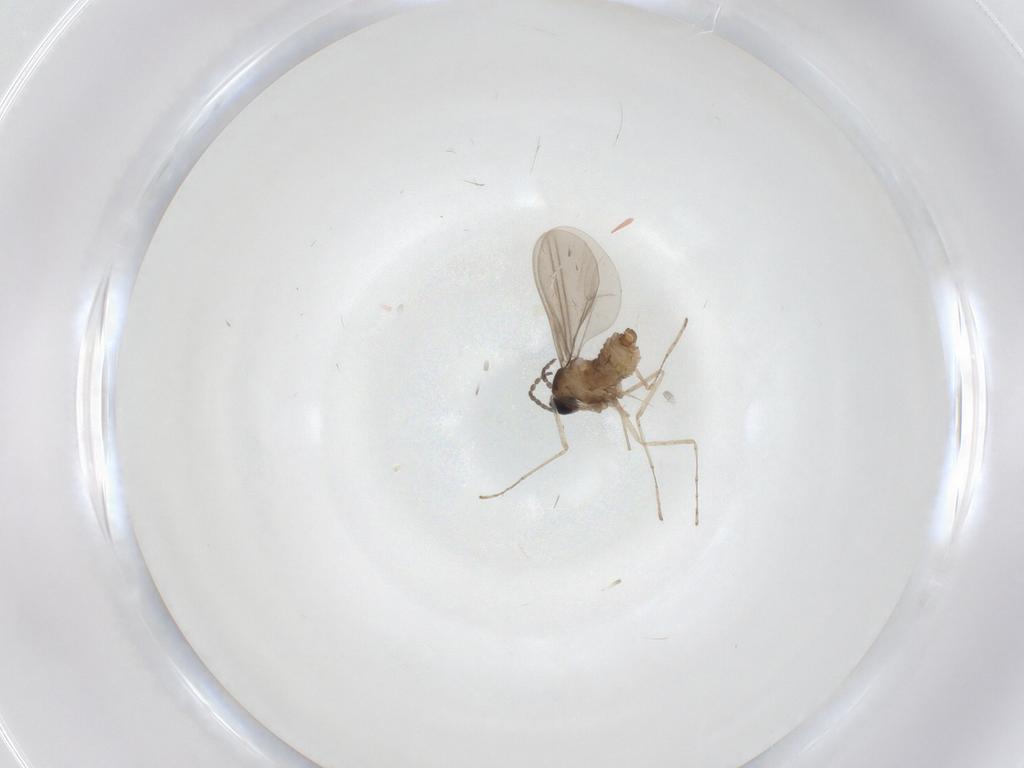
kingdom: Animalia
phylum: Arthropoda
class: Insecta
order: Diptera
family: Cecidomyiidae
